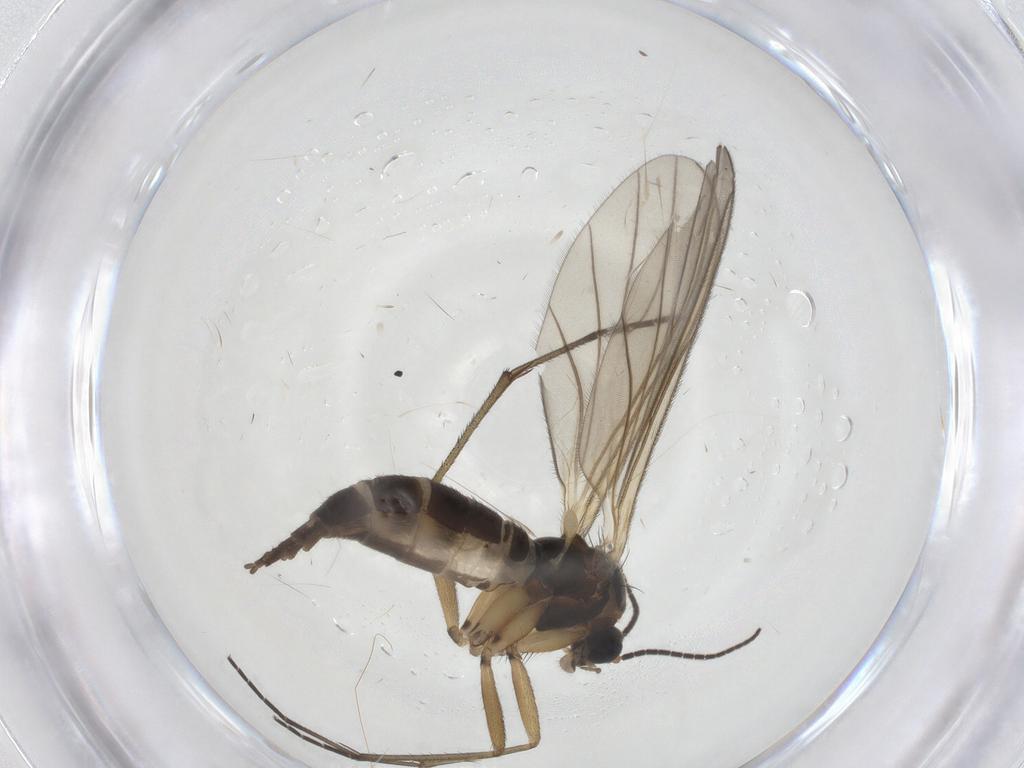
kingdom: Animalia
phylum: Arthropoda
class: Insecta
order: Diptera
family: Sciaridae
